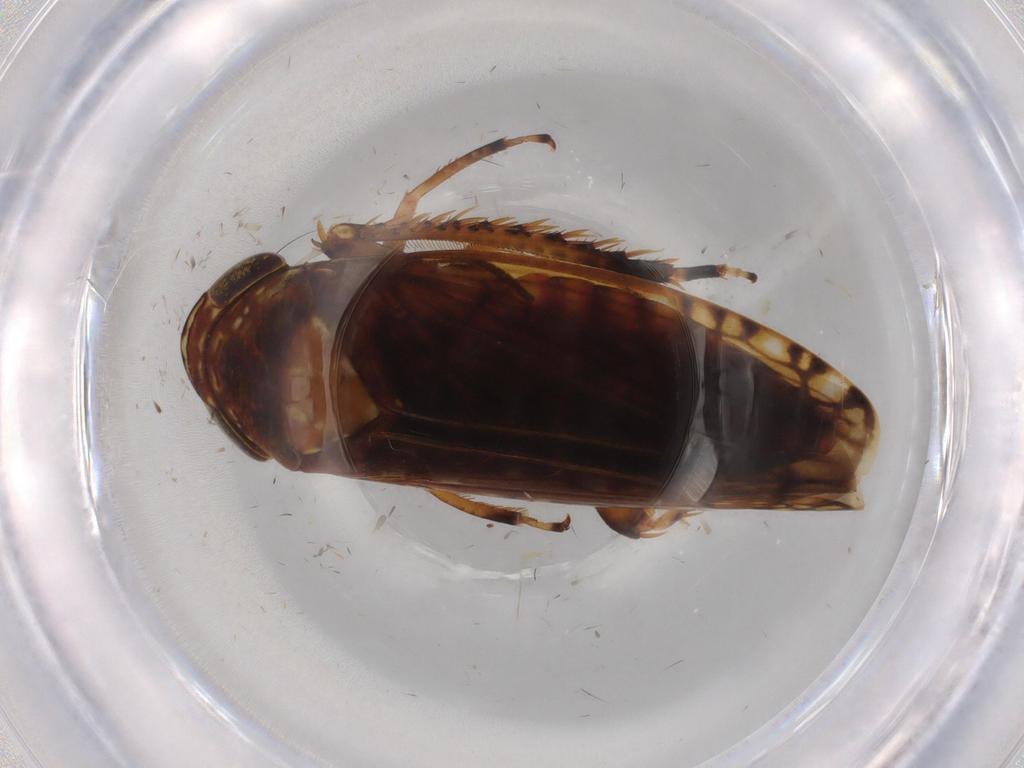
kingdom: Animalia
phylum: Arthropoda
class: Insecta
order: Hemiptera
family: Cicadellidae
